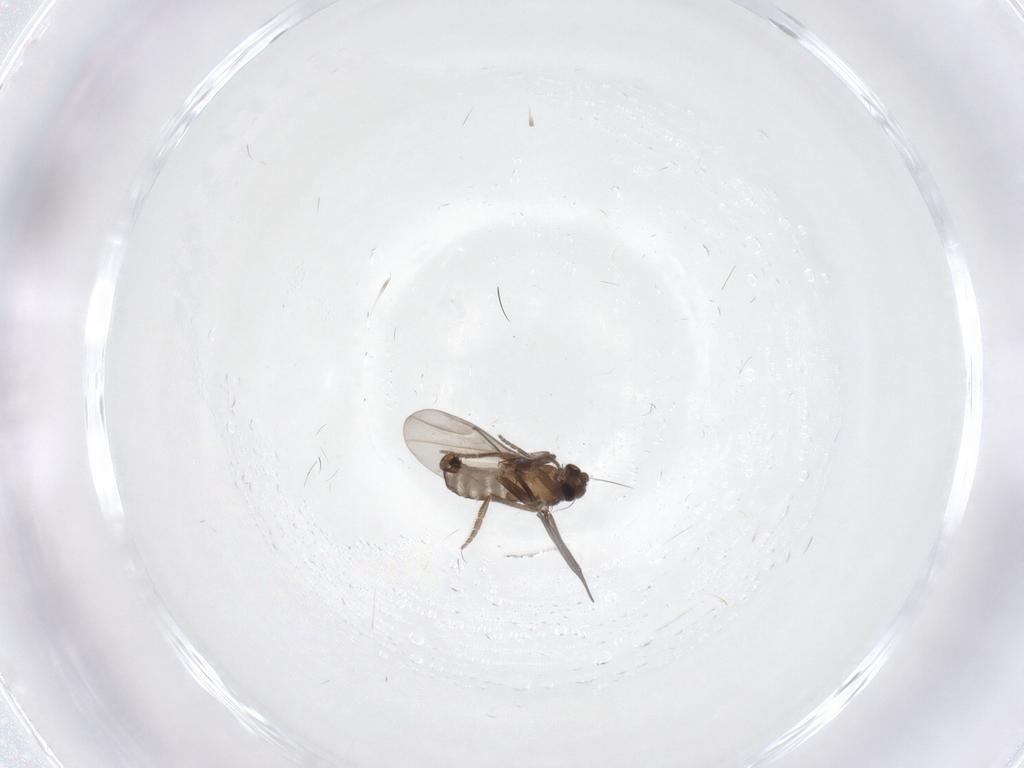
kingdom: Animalia
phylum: Arthropoda
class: Insecta
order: Diptera
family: Phoridae
